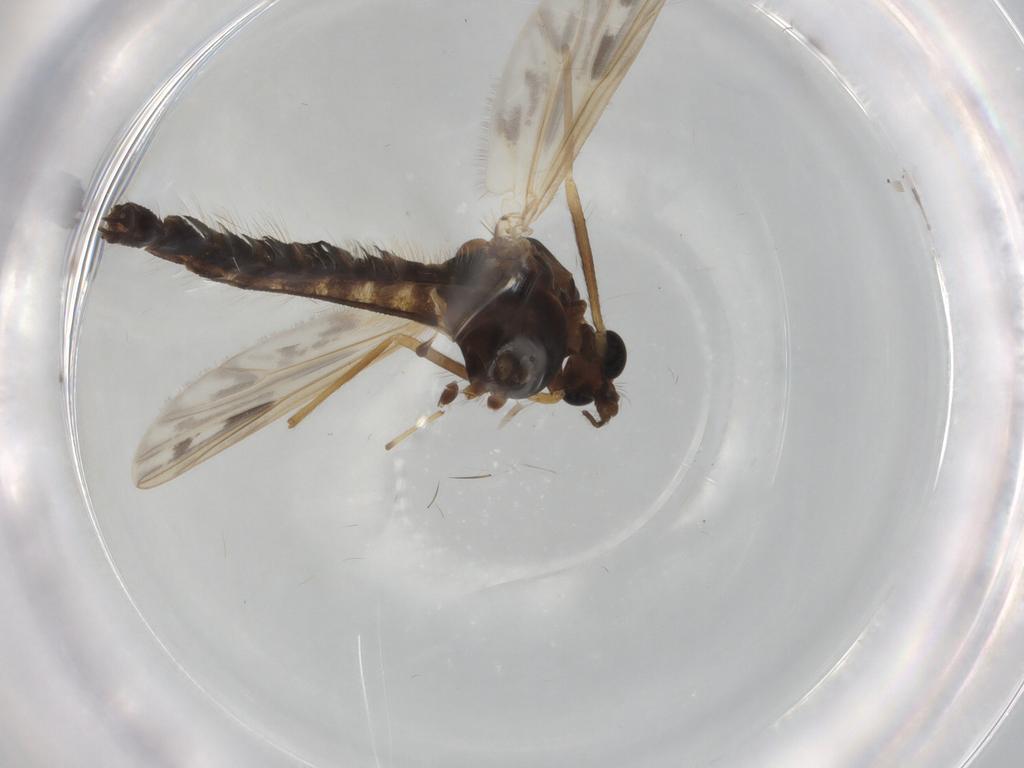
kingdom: Animalia
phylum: Arthropoda
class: Insecta
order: Diptera
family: Chironomidae
